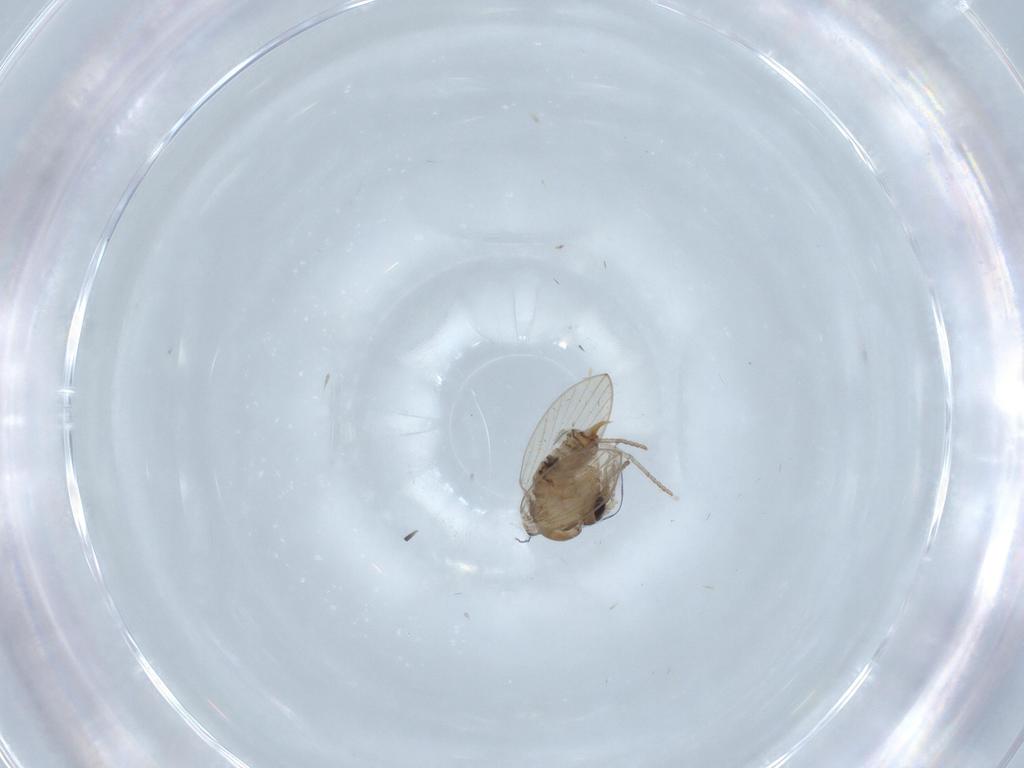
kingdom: Animalia
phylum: Arthropoda
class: Insecta
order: Diptera
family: Ceratopogonidae
